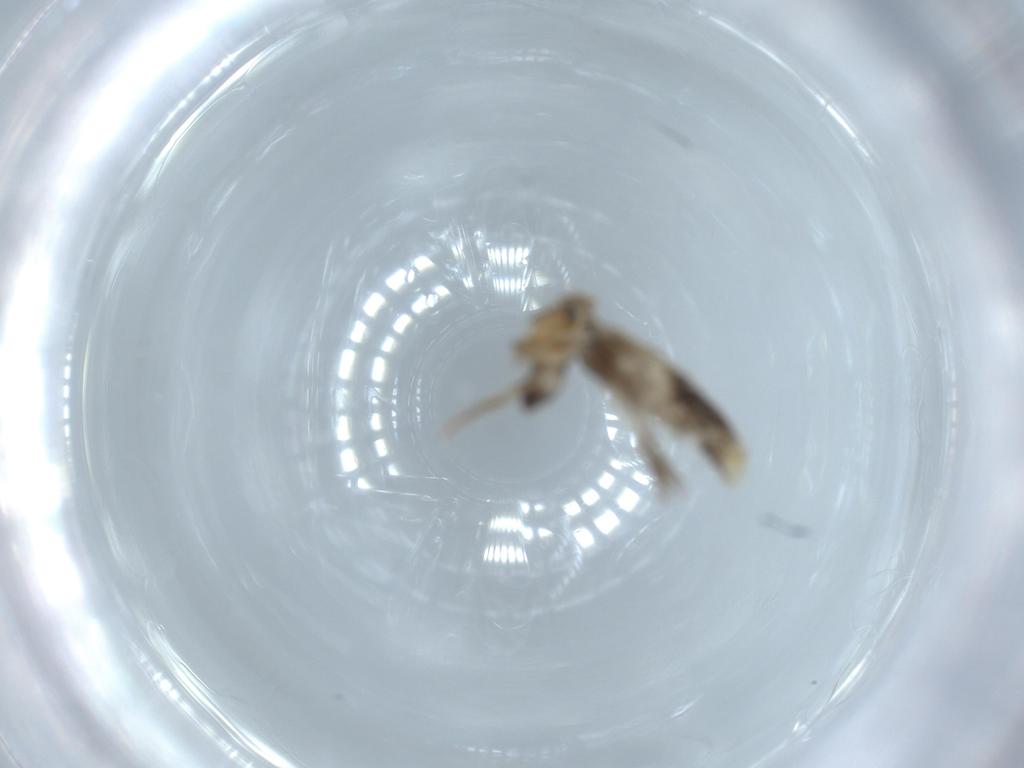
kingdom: Animalia
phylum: Arthropoda
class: Insecta
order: Lepidoptera
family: Nepticulidae
